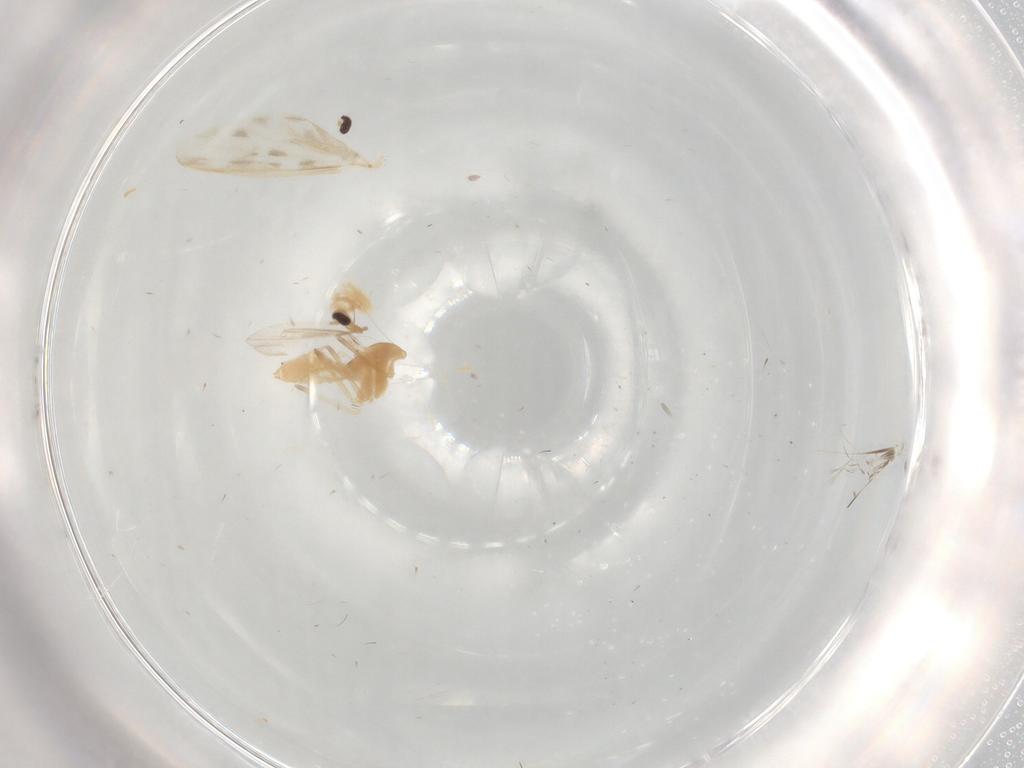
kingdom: Animalia
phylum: Arthropoda
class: Insecta
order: Diptera
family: Chironomidae
